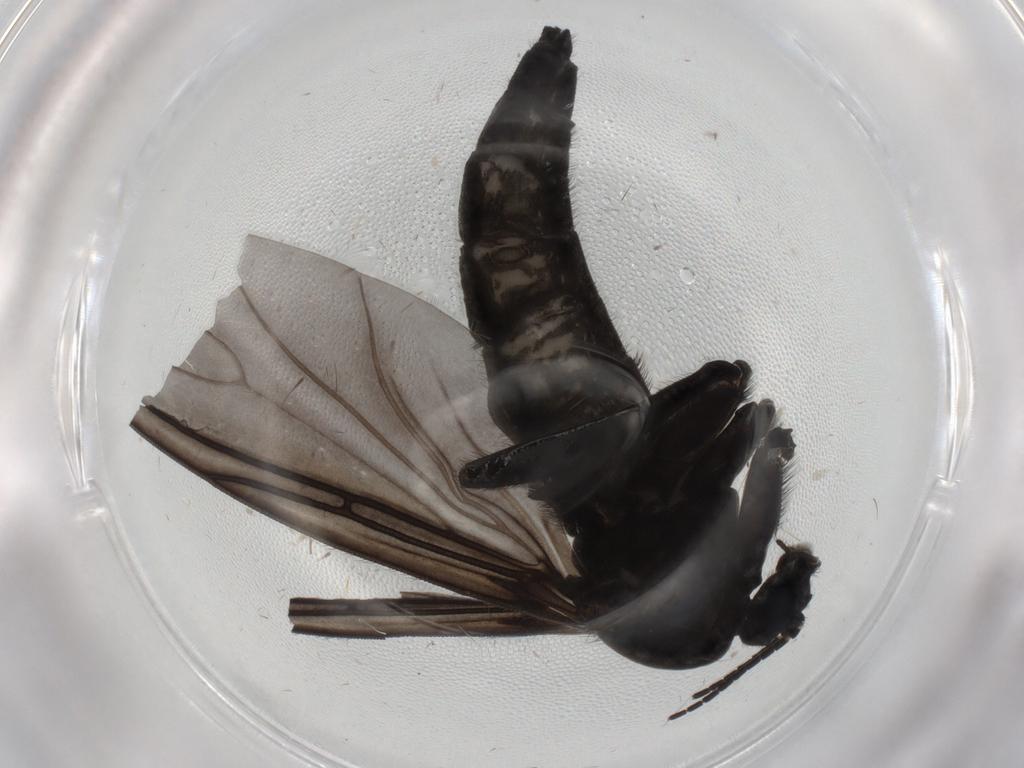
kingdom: Animalia
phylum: Arthropoda
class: Insecta
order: Diptera
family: Sciaridae
